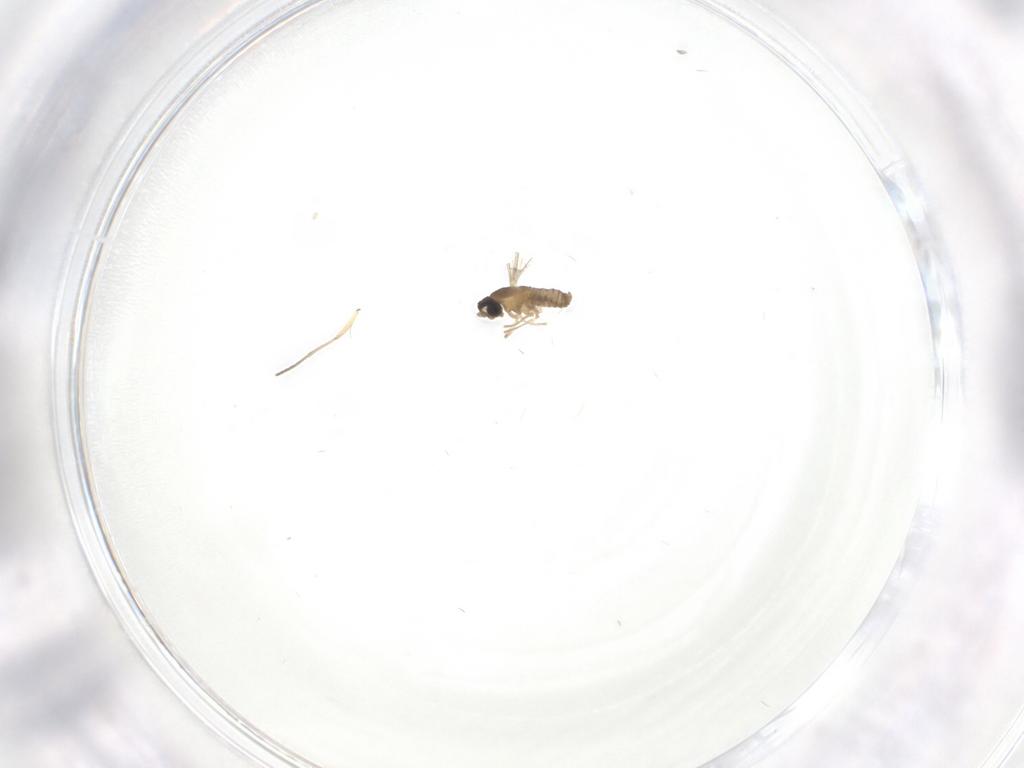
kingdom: Animalia
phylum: Arthropoda
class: Insecta
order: Diptera
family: Cecidomyiidae
